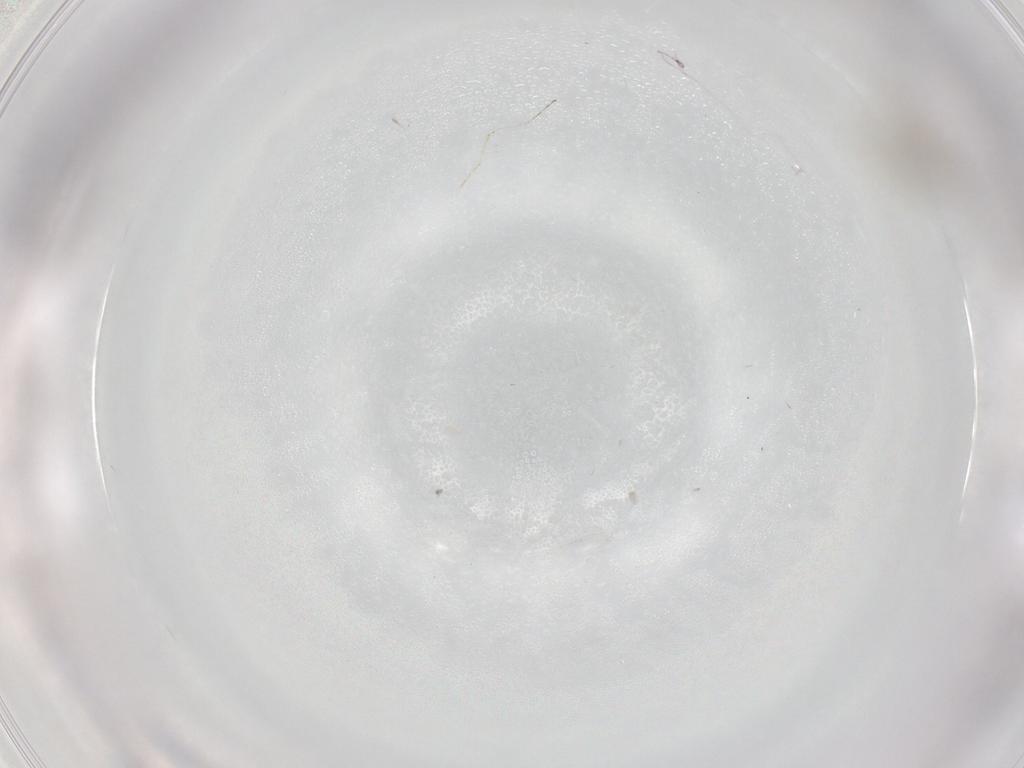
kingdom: Animalia
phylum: Arthropoda
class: Insecta
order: Diptera
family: Cecidomyiidae
